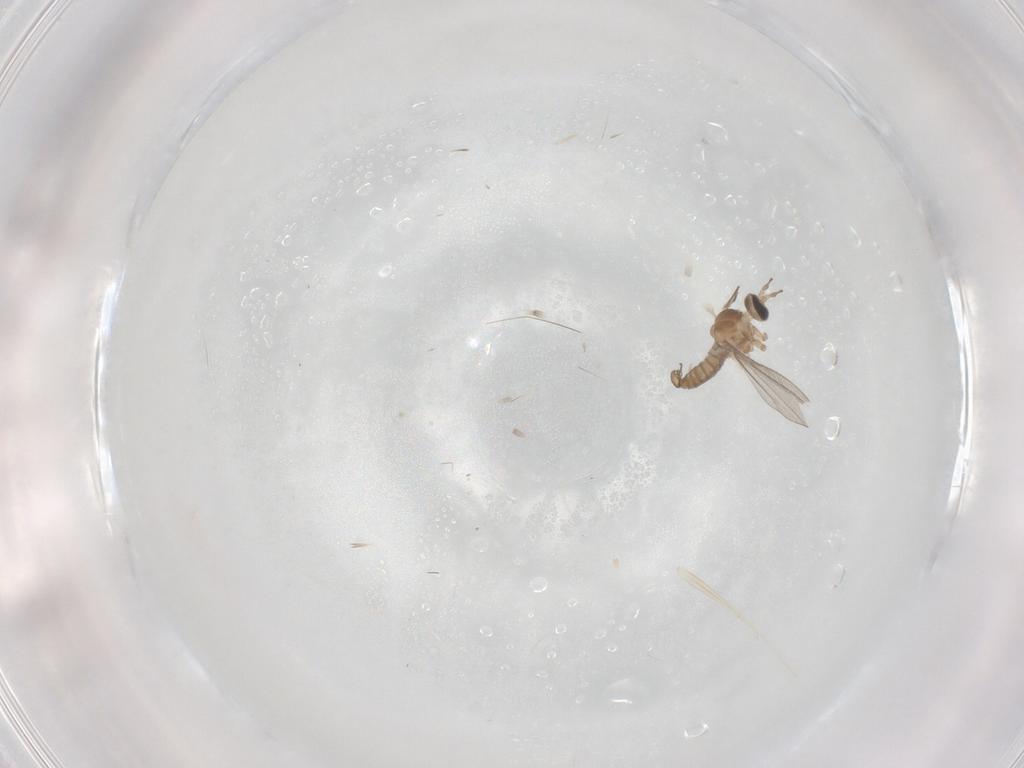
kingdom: Animalia
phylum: Arthropoda
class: Insecta
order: Diptera
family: Cecidomyiidae
